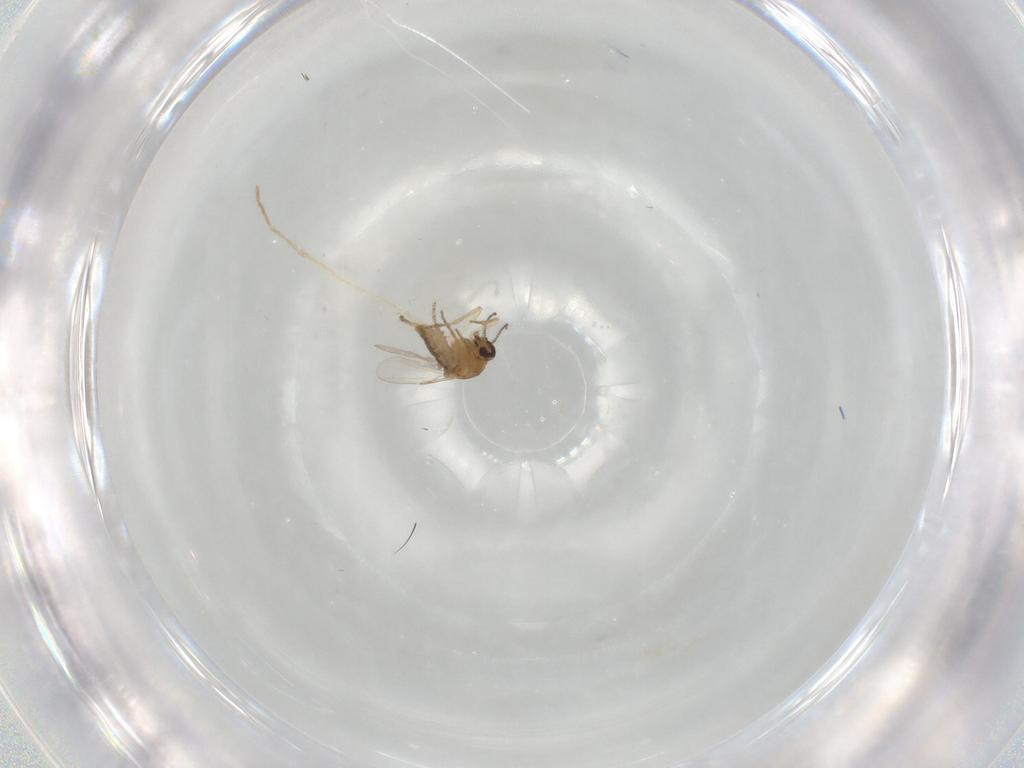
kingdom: Animalia
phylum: Arthropoda
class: Insecta
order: Diptera
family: Ceratopogonidae
